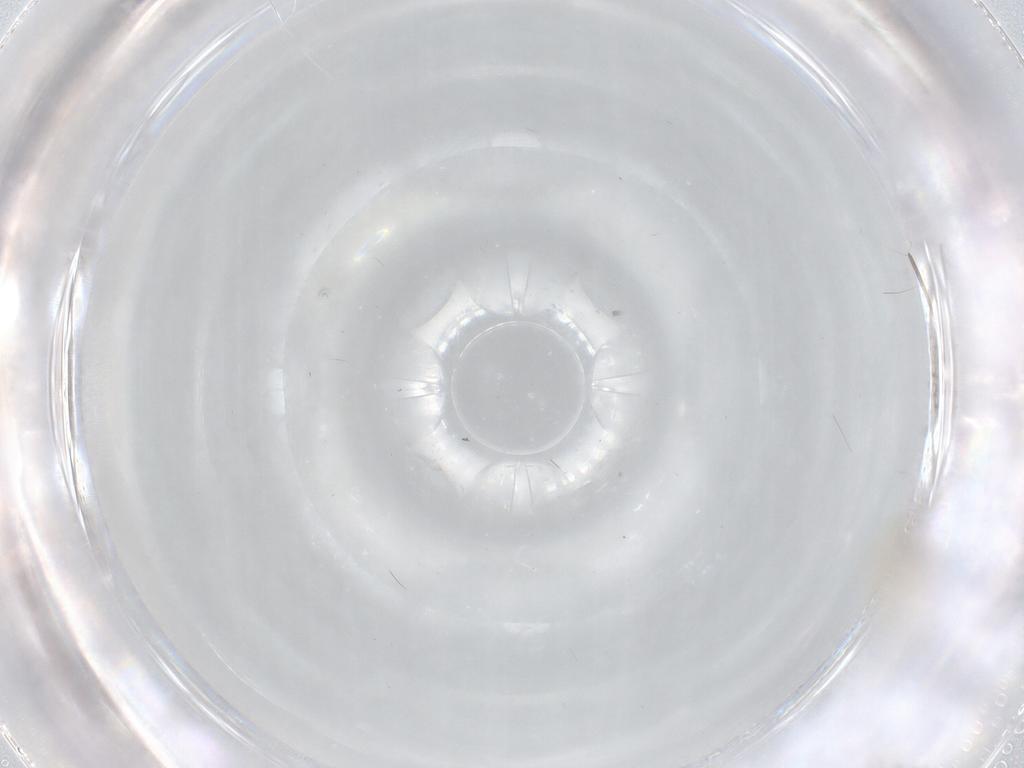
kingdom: Animalia
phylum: Arthropoda
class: Insecta
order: Diptera
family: Cecidomyiidae
